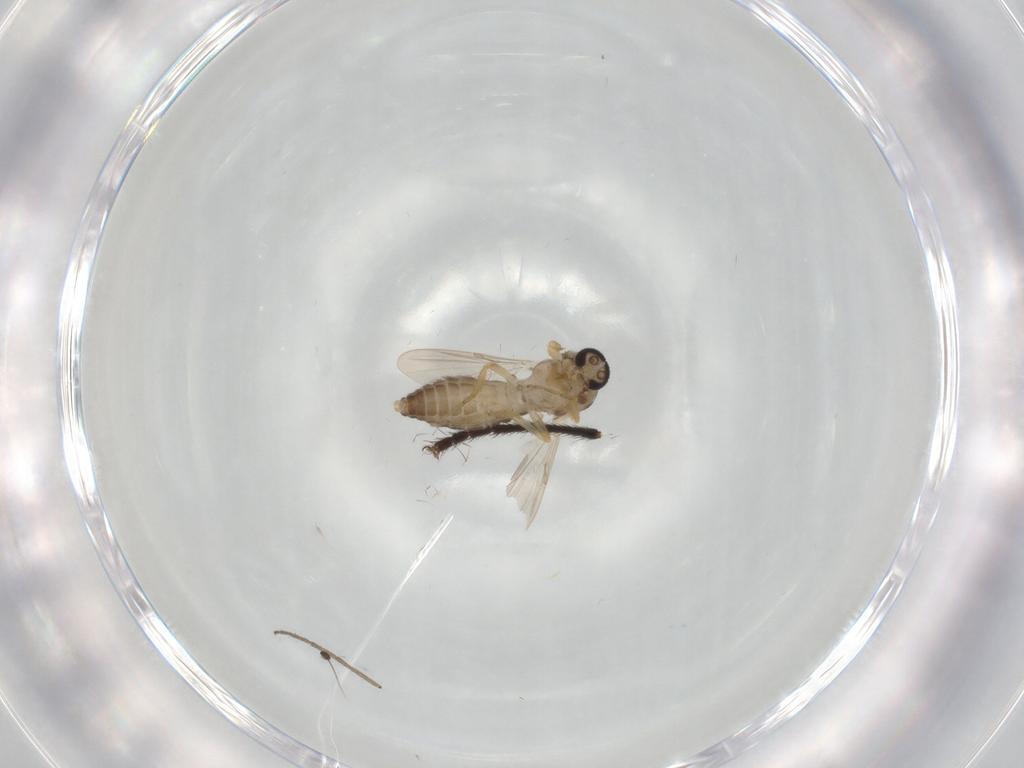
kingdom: Animalia
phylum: Arthropoda
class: Insecta
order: Diptera
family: Ceratopogonidae
